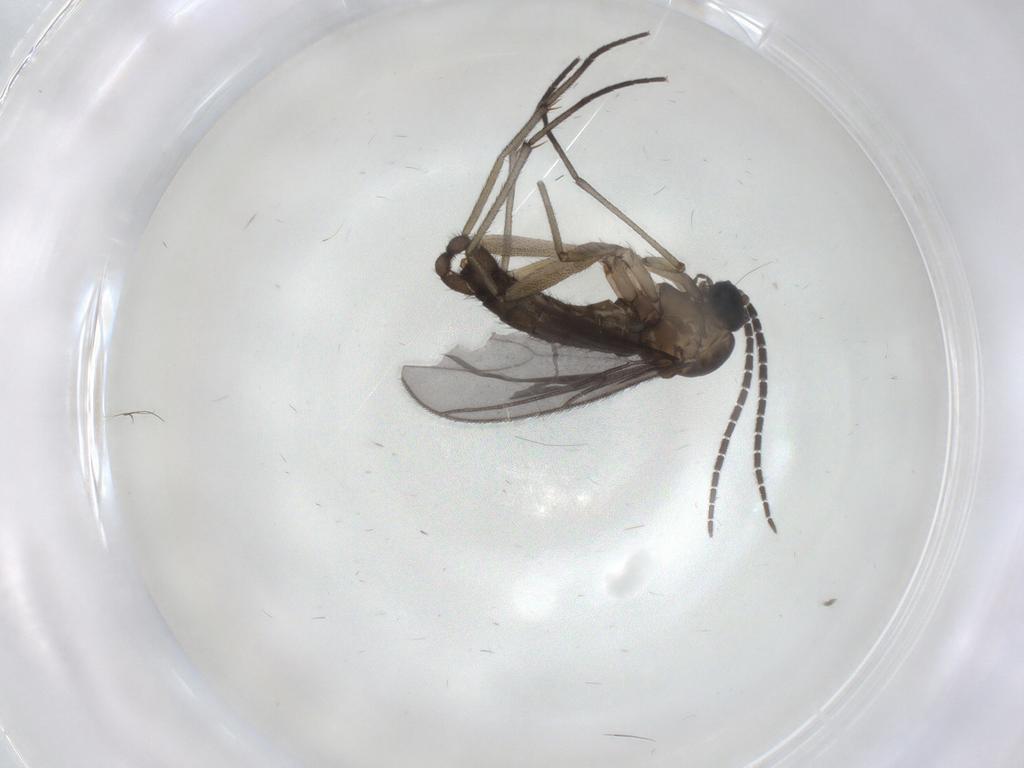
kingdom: Animalia
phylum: Arthropoda
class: Insecta
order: Diptera
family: Sciaridae
